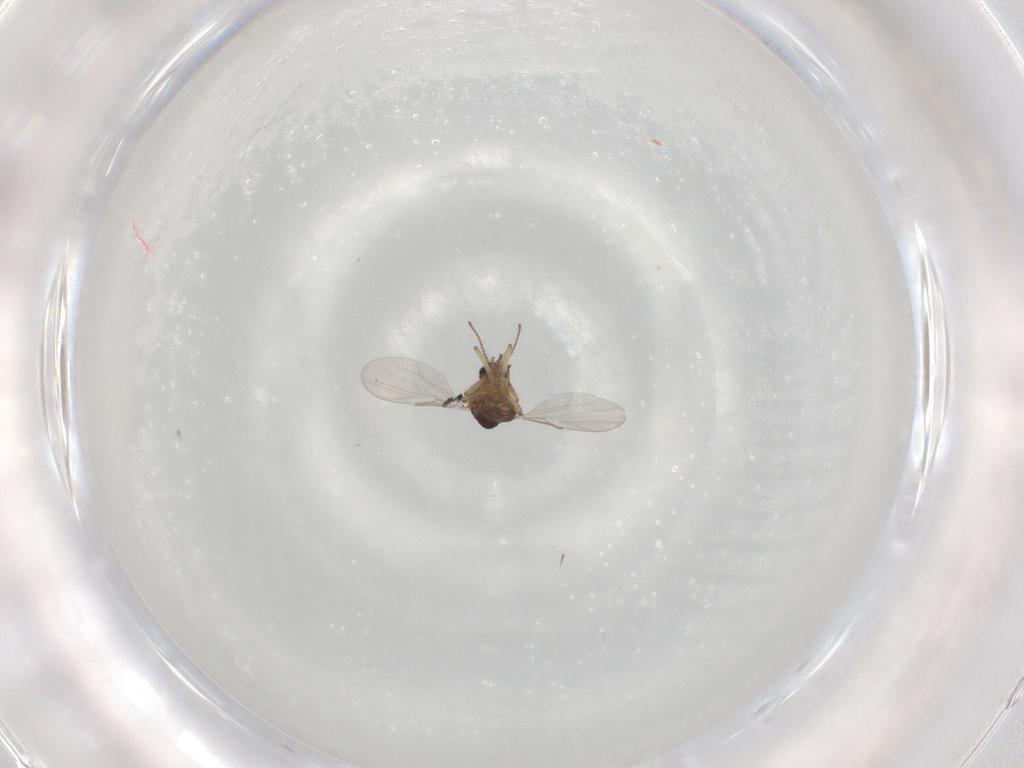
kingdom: Animalia
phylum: Arthropoda
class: Insecta
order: Diptera
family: Ceratopogonidae
